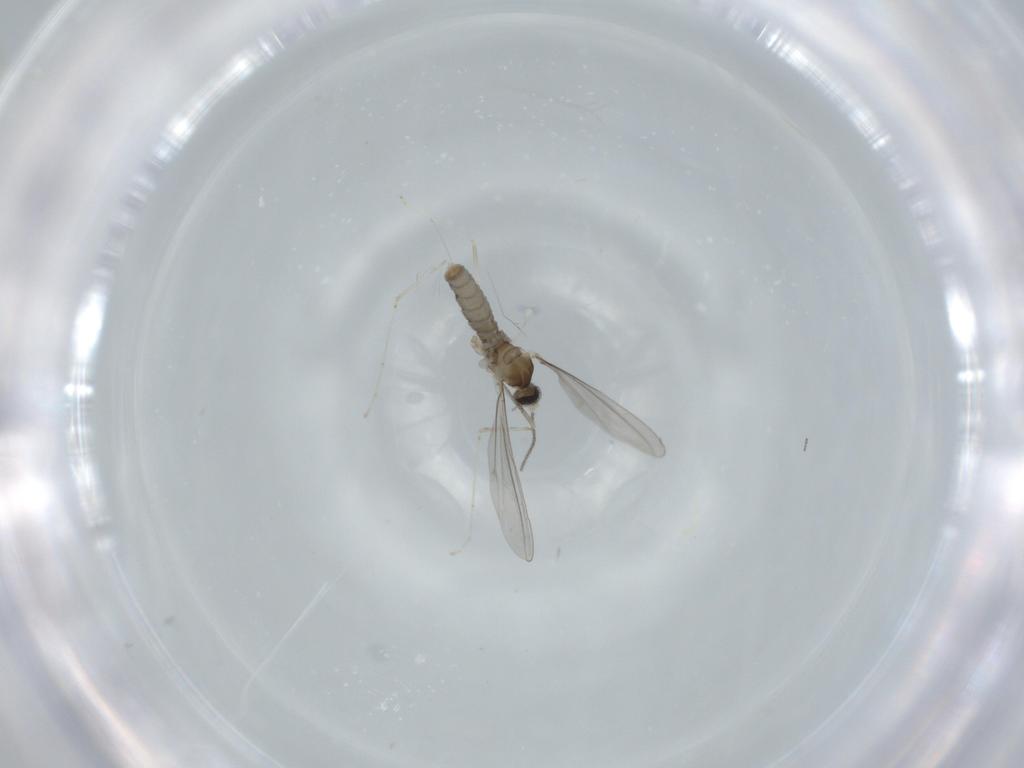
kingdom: Animalia
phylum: Arthropoda
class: Insecta
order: Diptera
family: Cecidomyiidae
